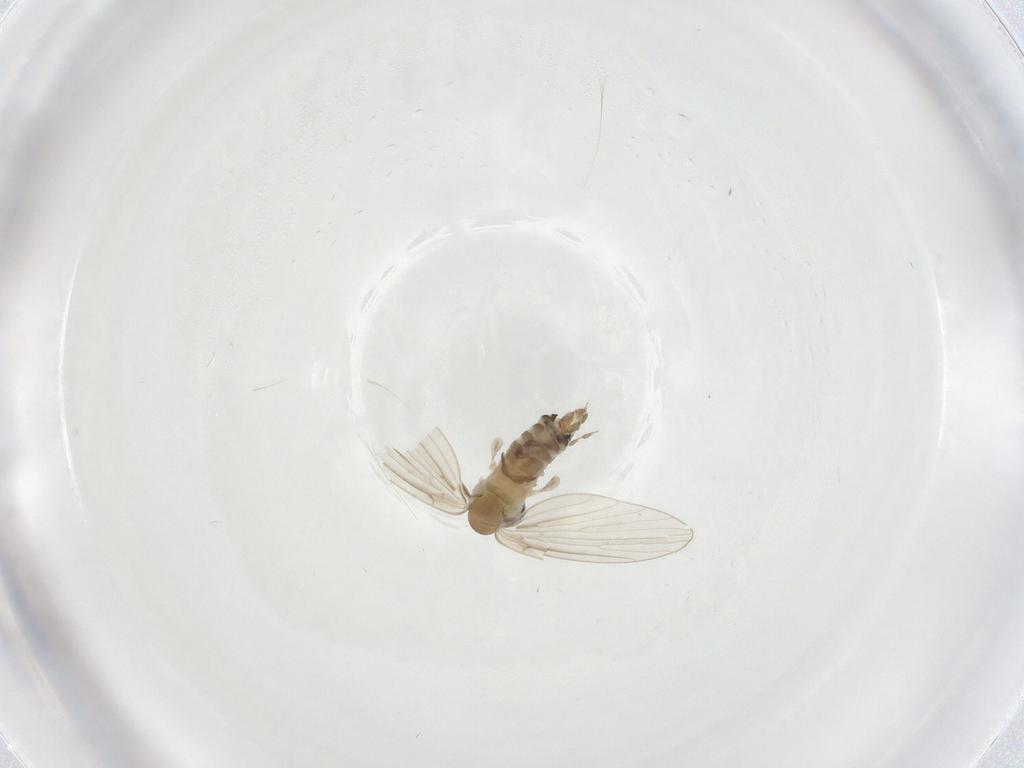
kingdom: Animalia
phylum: Arthropoda
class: Insecta
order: Diptera
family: Psychodidae
